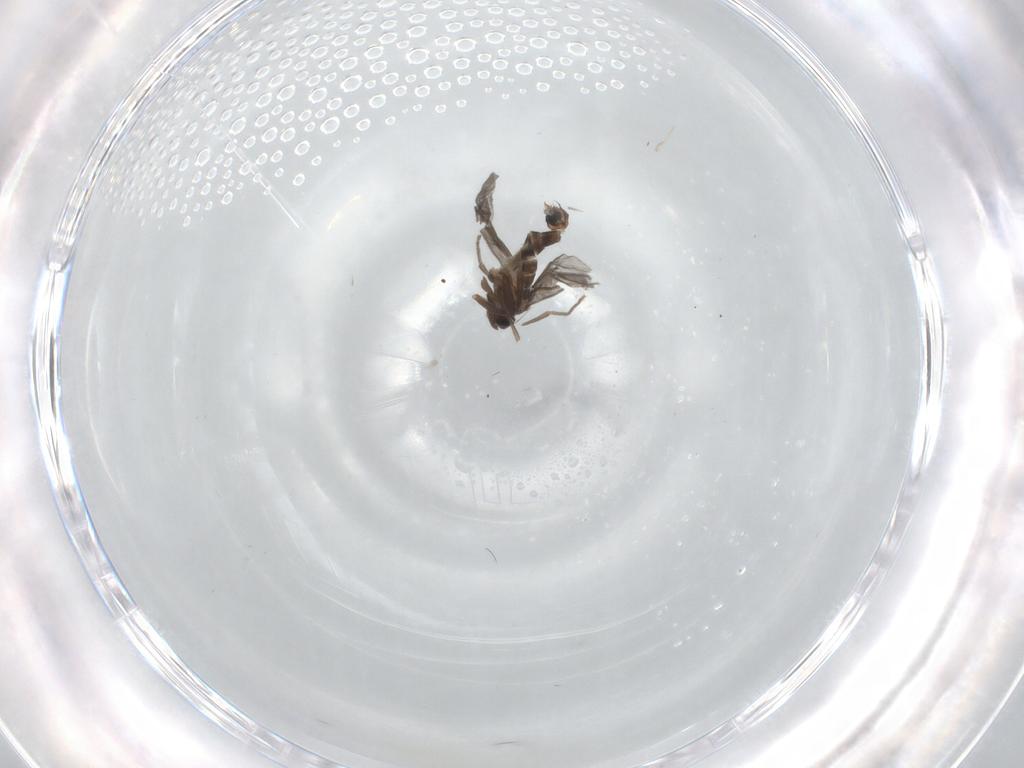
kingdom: Animalia
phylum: Arthropoda
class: Insecta
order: Diptera
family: Phoridae
